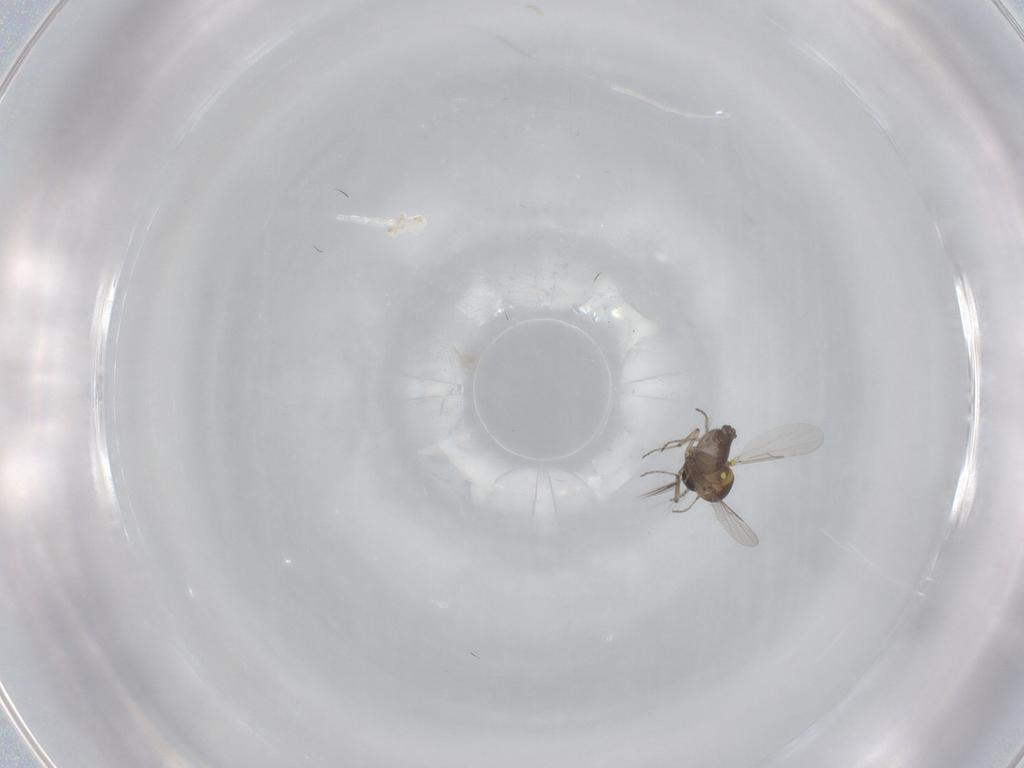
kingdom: Animalia
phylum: Arthropoda
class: Insecta
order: Diptera
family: Ceratopogonidae
